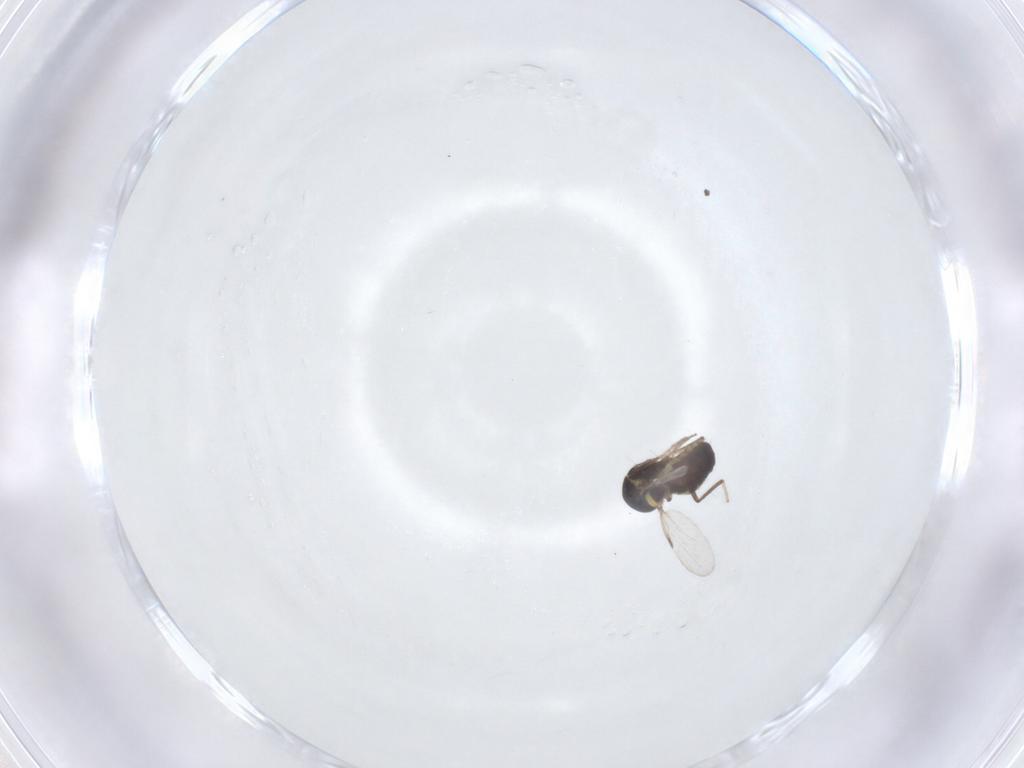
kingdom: Animalia
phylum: Arthropoda
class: Insecta
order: Diptera
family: Ceratopogonidae
